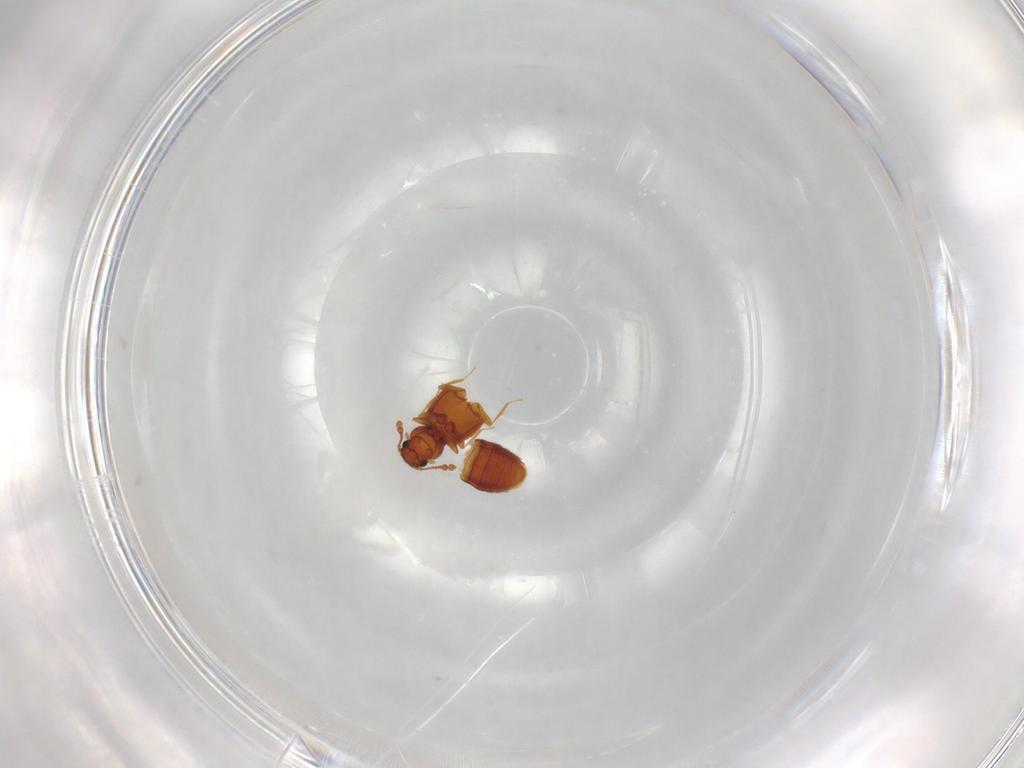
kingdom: Animalia
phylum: Arthropoda
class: Insecta
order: Coleoptera
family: Staphylinidae
